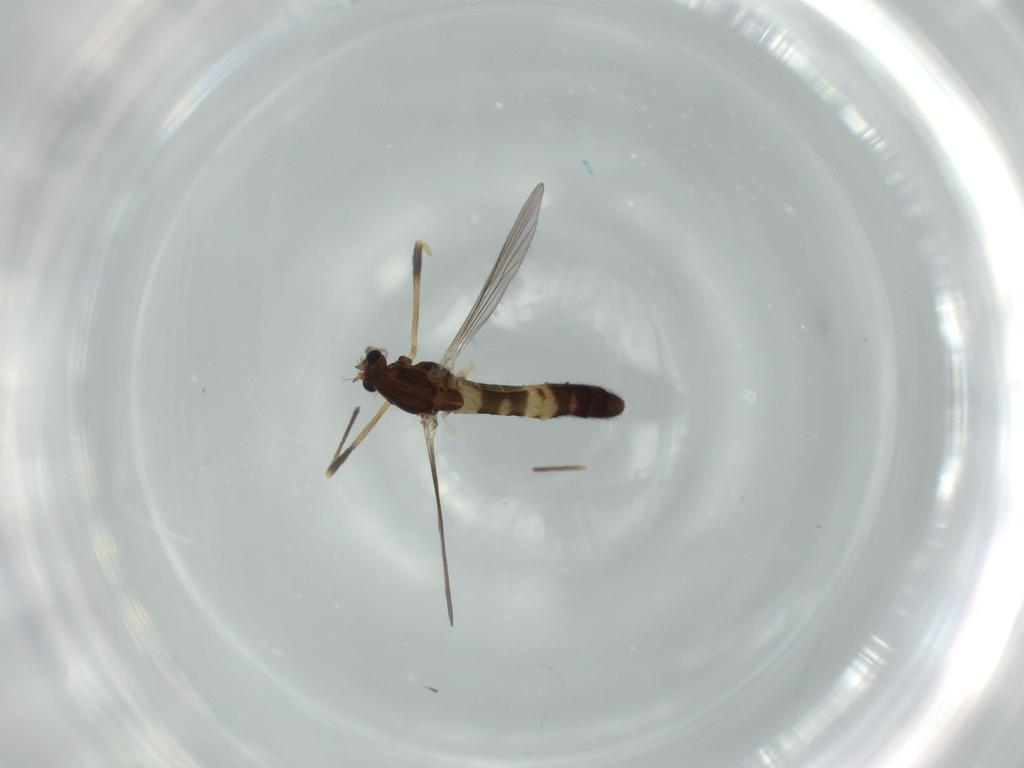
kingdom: Animalia
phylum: Arthropoda
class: Insecta
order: Diptera
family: Chironomidae
